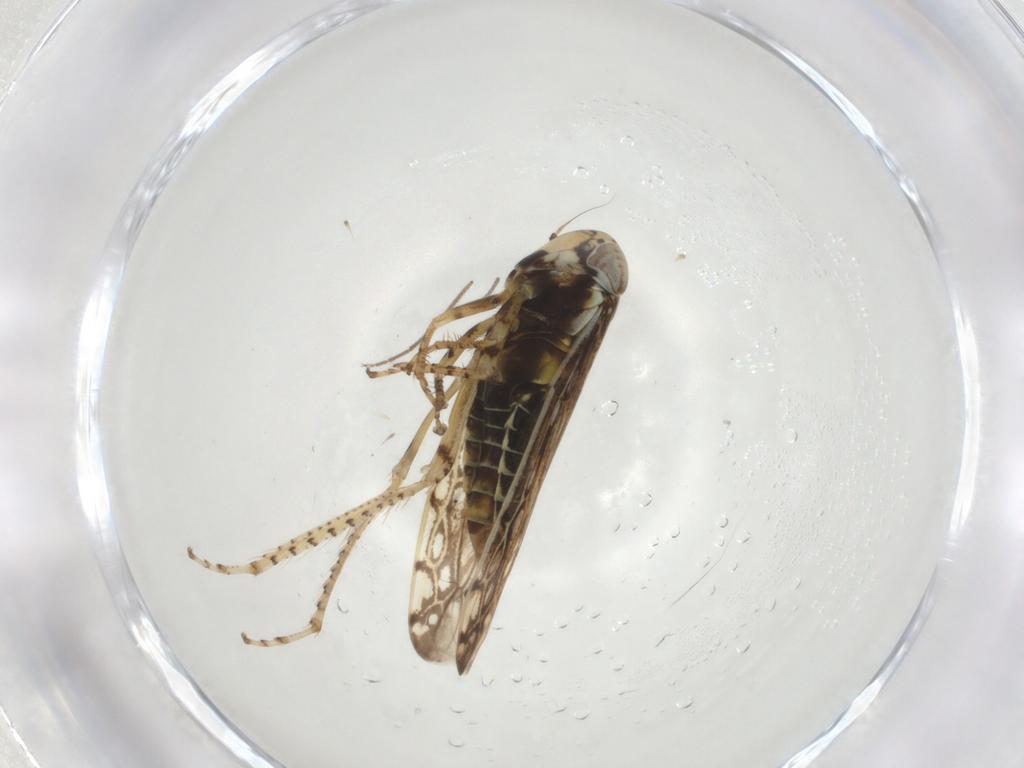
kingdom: Animalia
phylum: Arthropoda
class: Insecta
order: Hemiptera
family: Cicadellidae
